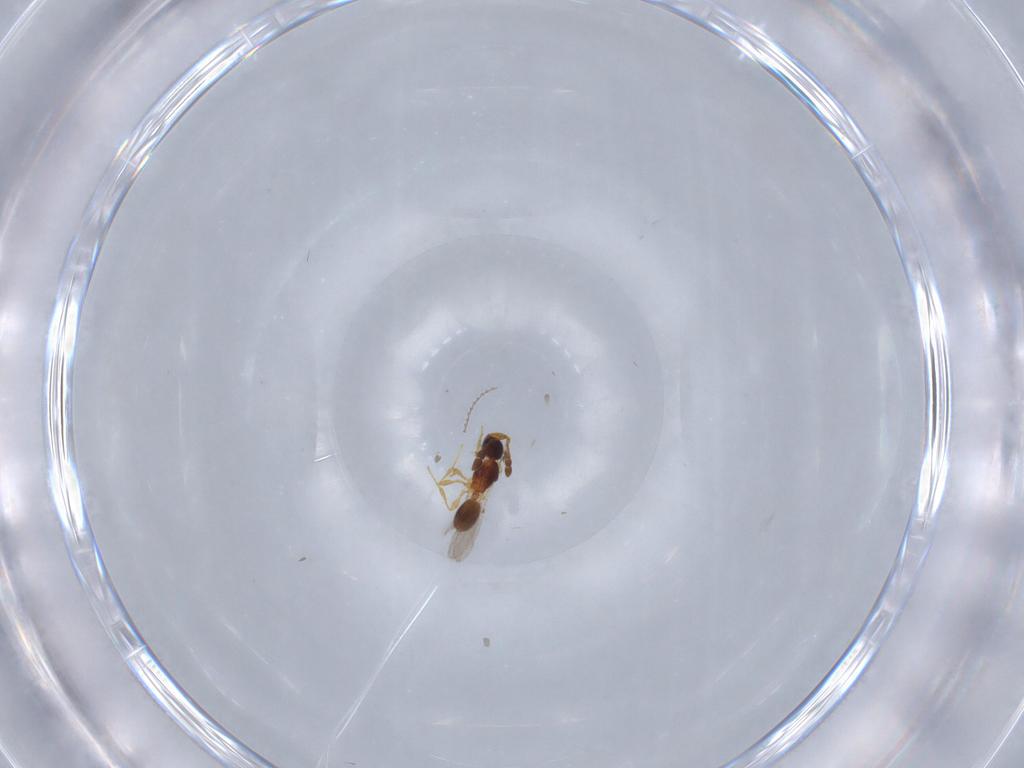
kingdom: Animalia
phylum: Arthropoda
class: Insecta
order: Hymenoptera
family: Diapriidae
